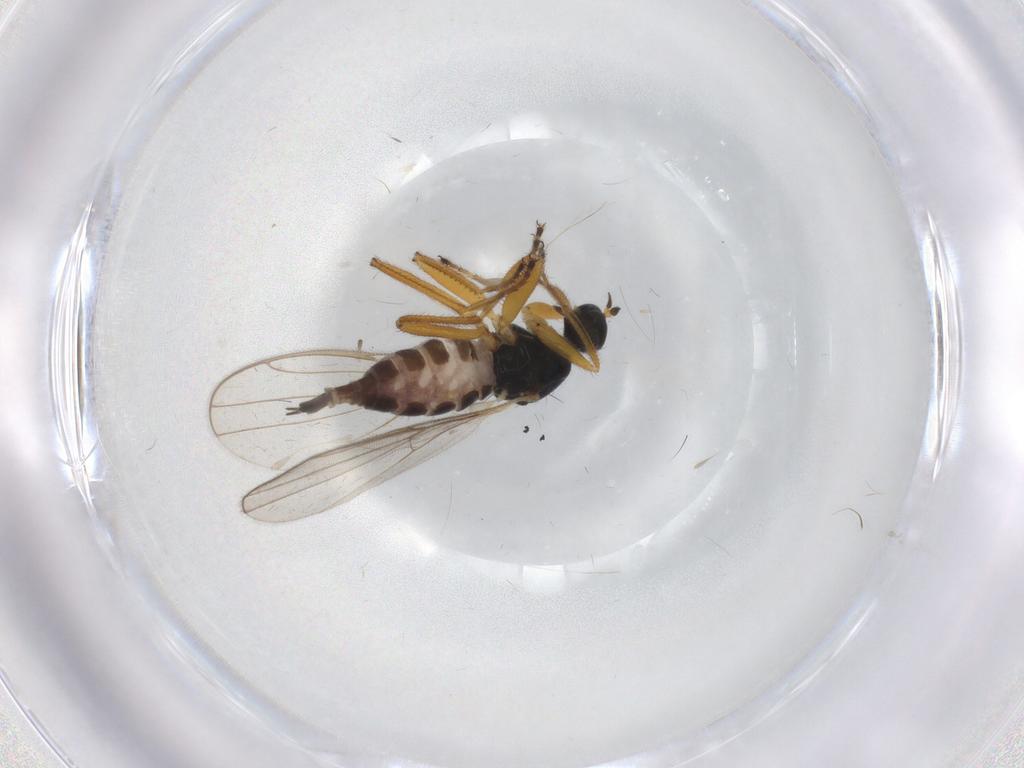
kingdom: Animalia
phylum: Arthropoda
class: Insecta
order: Diptera
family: Hybotidae
